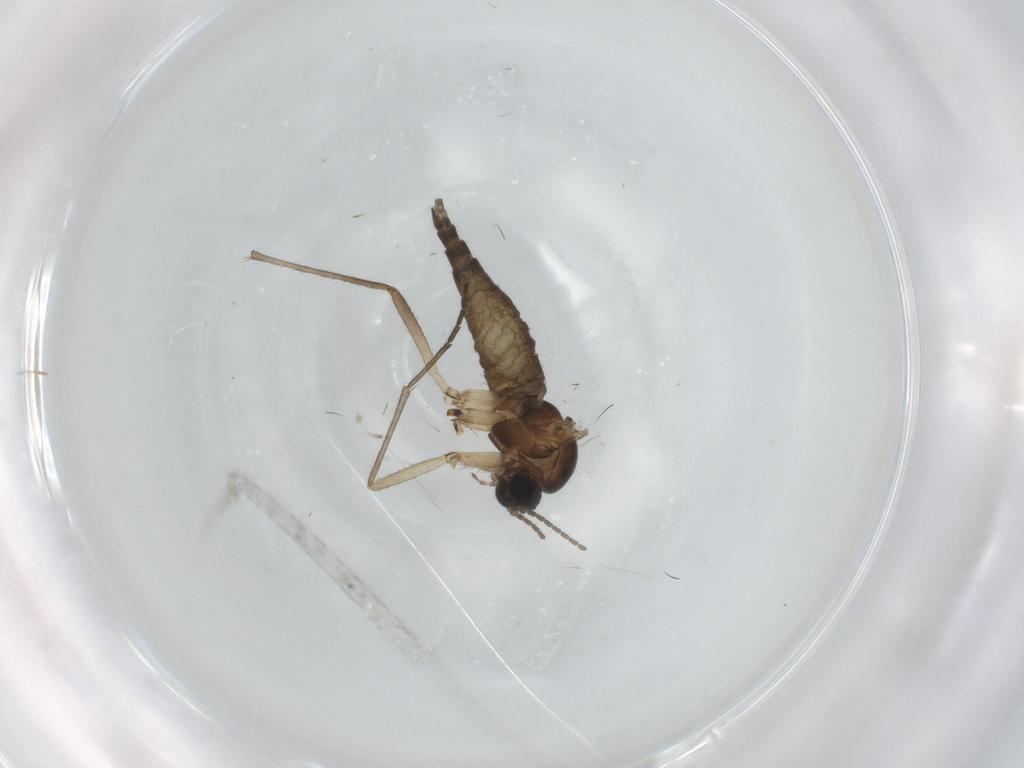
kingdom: Animalia
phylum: Arthropoda
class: Insecta
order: Diptera
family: Sciaridae
